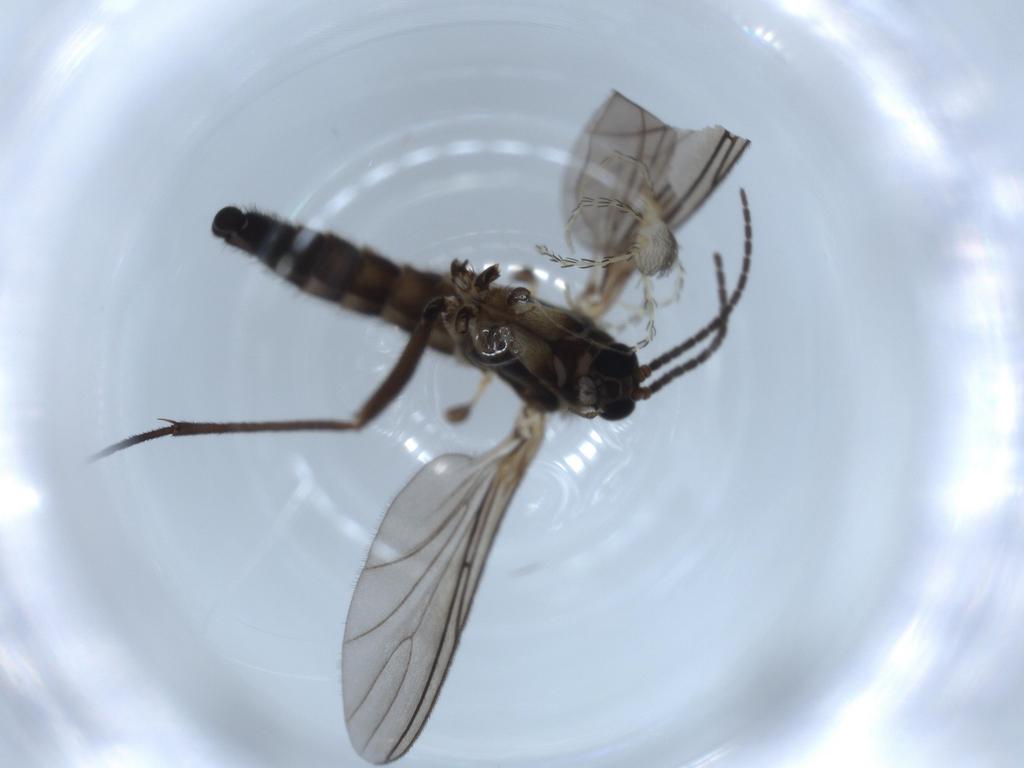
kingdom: Animalia
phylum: Arthropoda
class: Insecta
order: Diptera
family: Sciaridae
